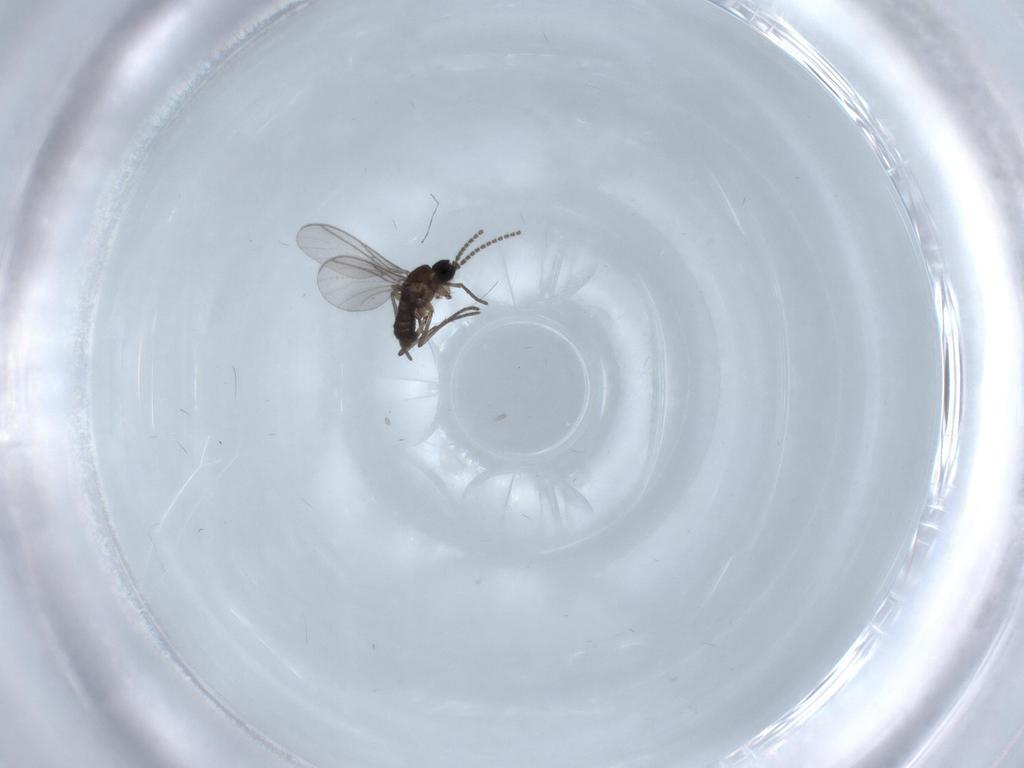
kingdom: Animalia
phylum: Arthropoda
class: Insecta
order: Diptera
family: Psychodidae
